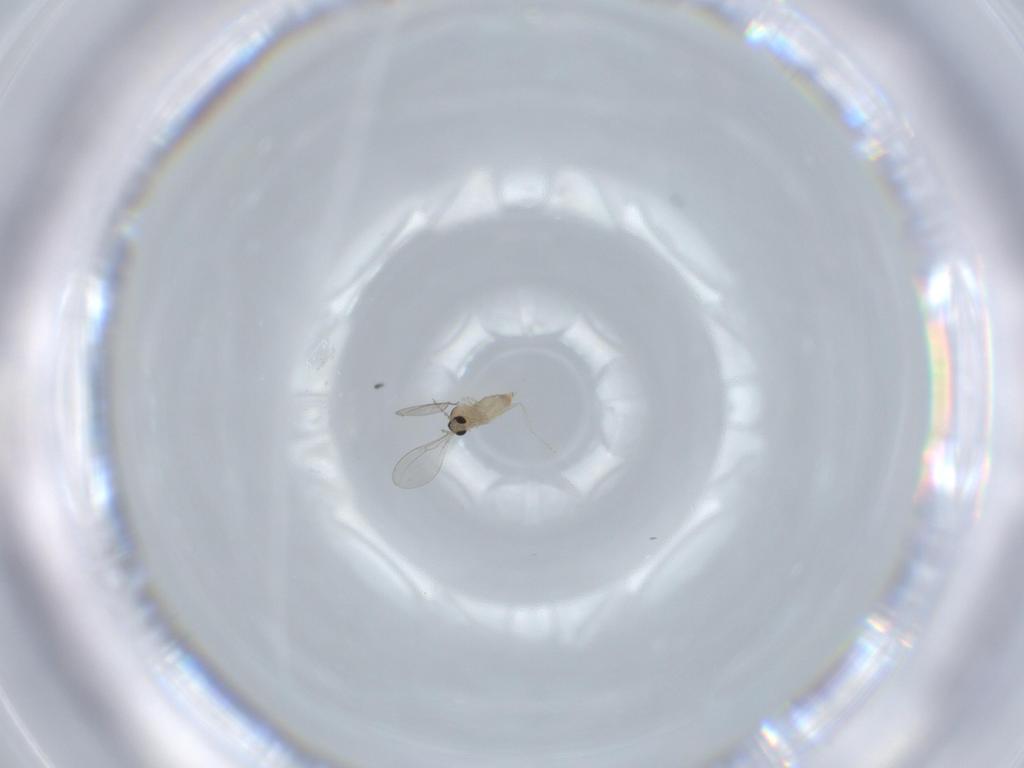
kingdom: Animalia
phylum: Arthropoda
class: Insecta
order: Diptera
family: Cecidomyiidae
